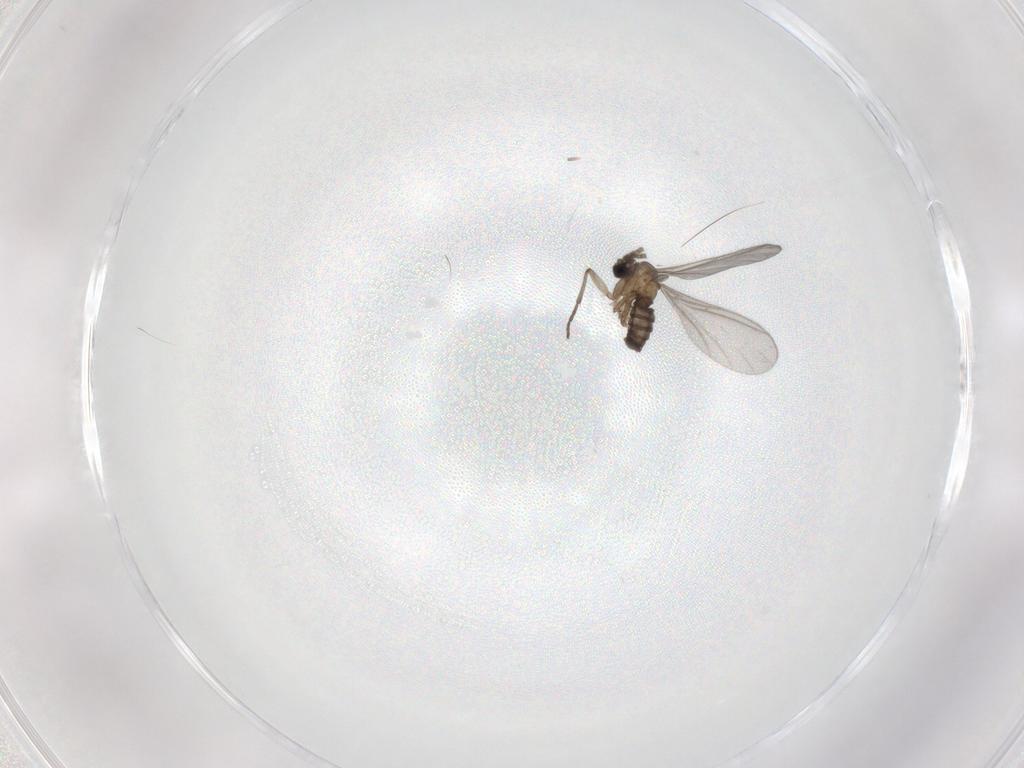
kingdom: Animalia
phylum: Arthropoda
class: Insecta
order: Diptera
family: Sciaridae
